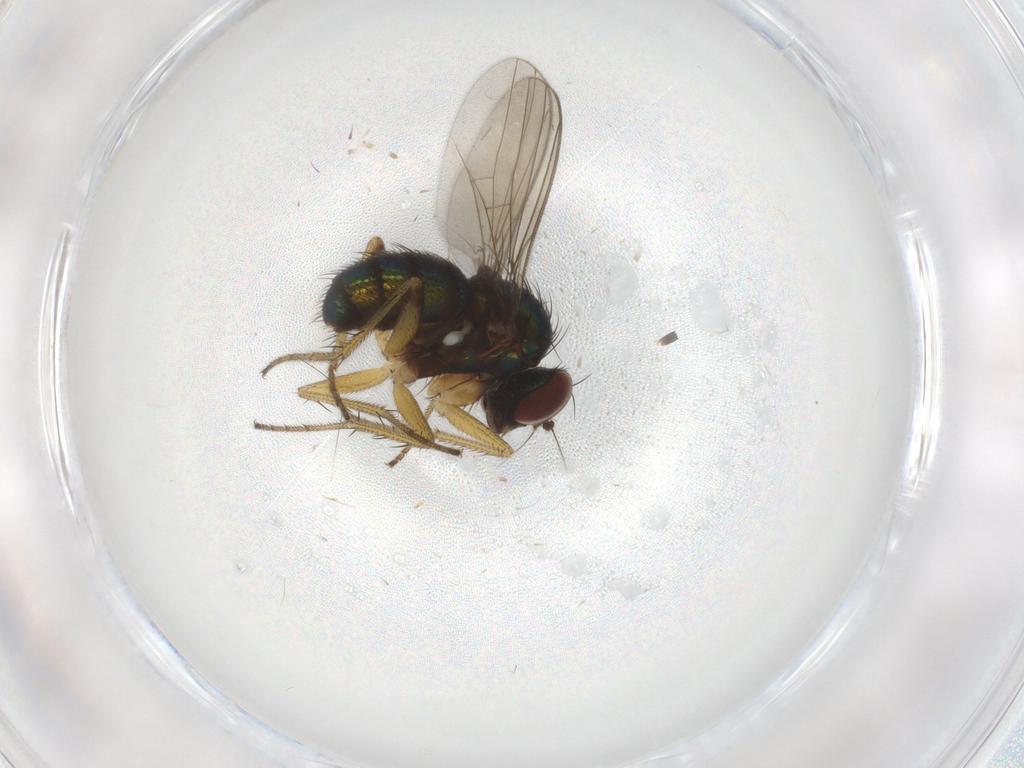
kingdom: Animalia
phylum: Arthropoda
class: Insecta
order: Diptera
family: Chironomidae
